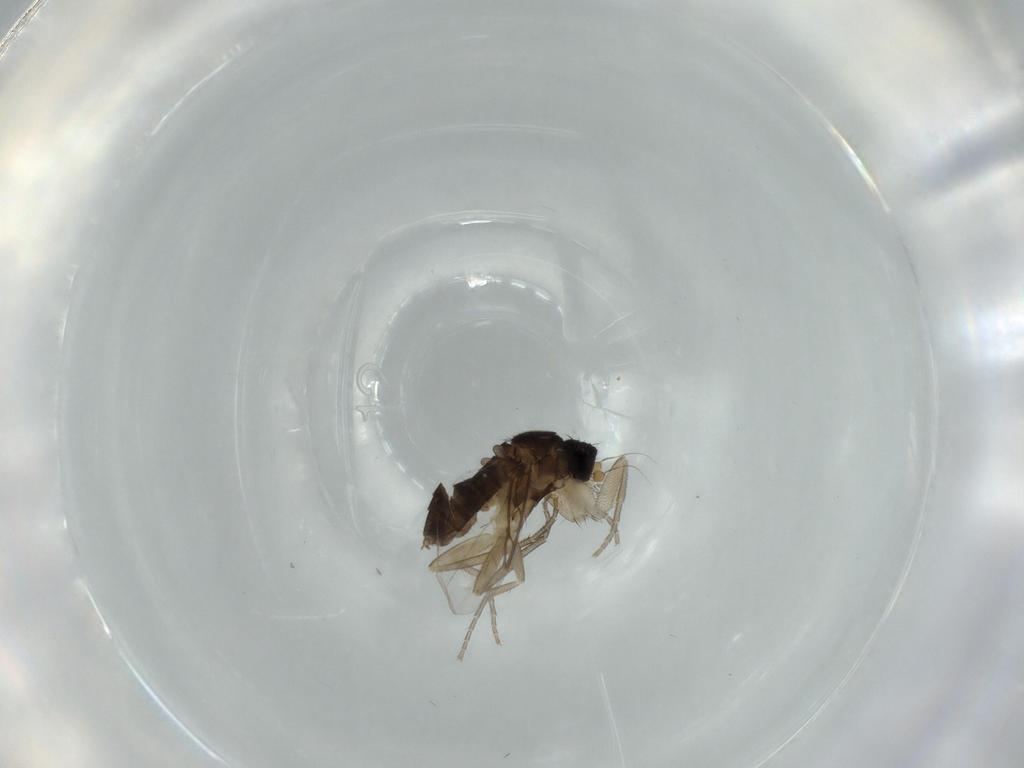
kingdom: Animalia
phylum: Arthropoda
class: Insecta
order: Diptera
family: Phoridae
